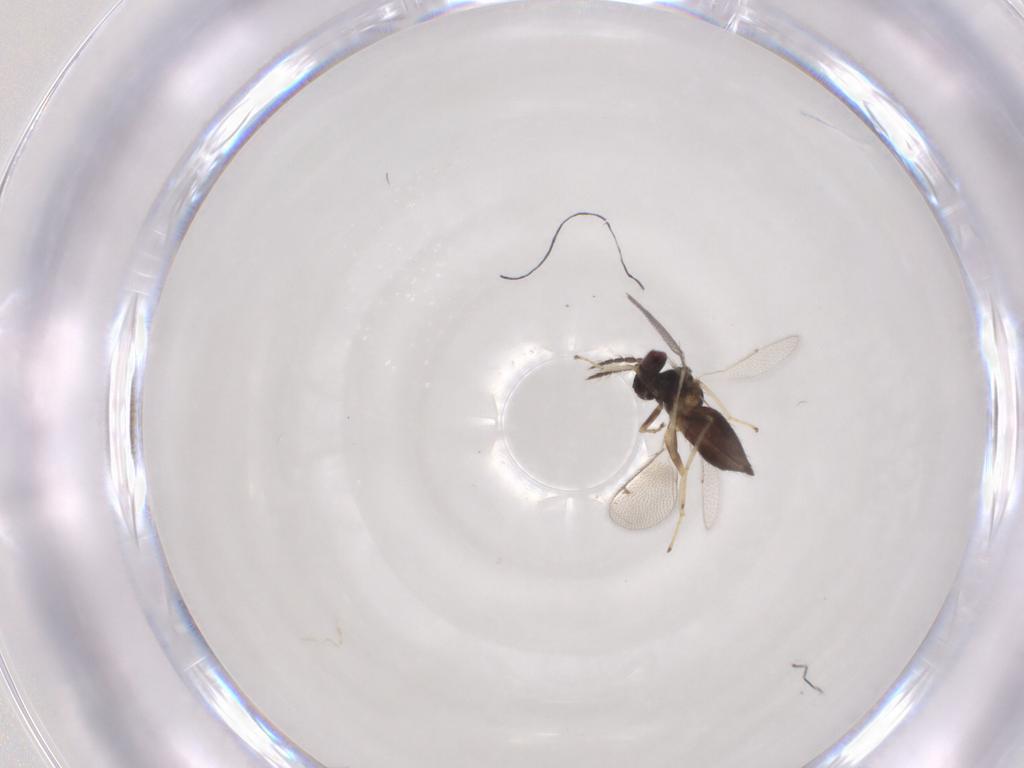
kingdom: Animalia
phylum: Arthropoda
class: Insecta
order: Hymenoptera
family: Eulophidae
